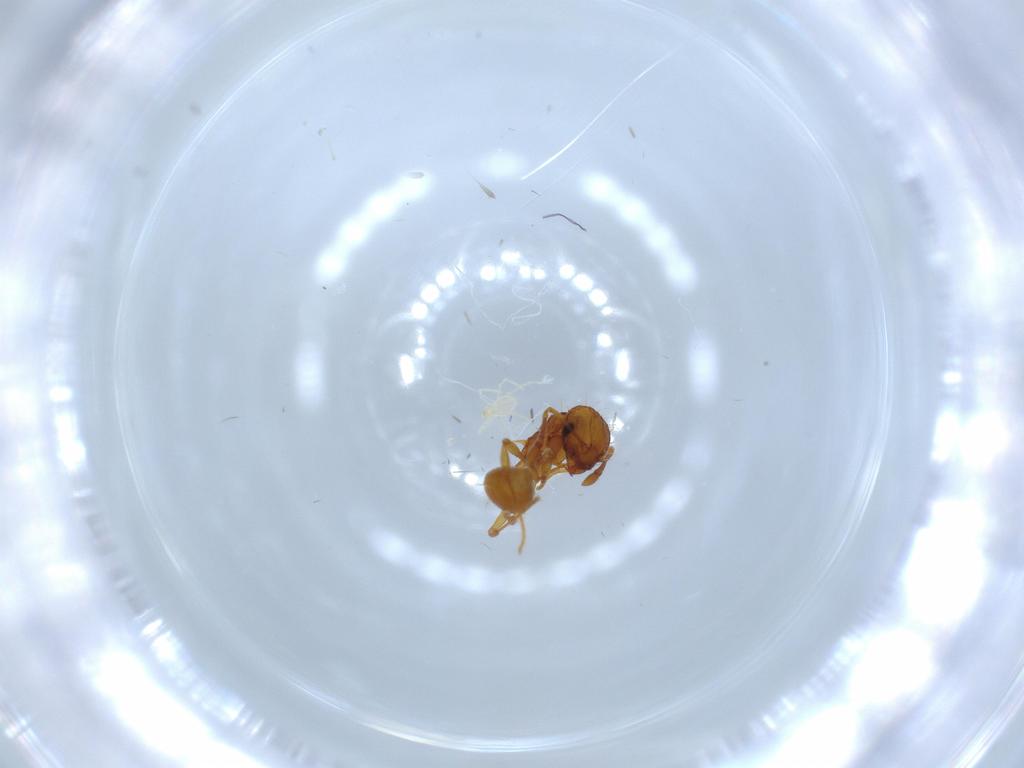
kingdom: Animalia
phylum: Arthropoda
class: Insecta
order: Hymenoptera
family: Formicidae
